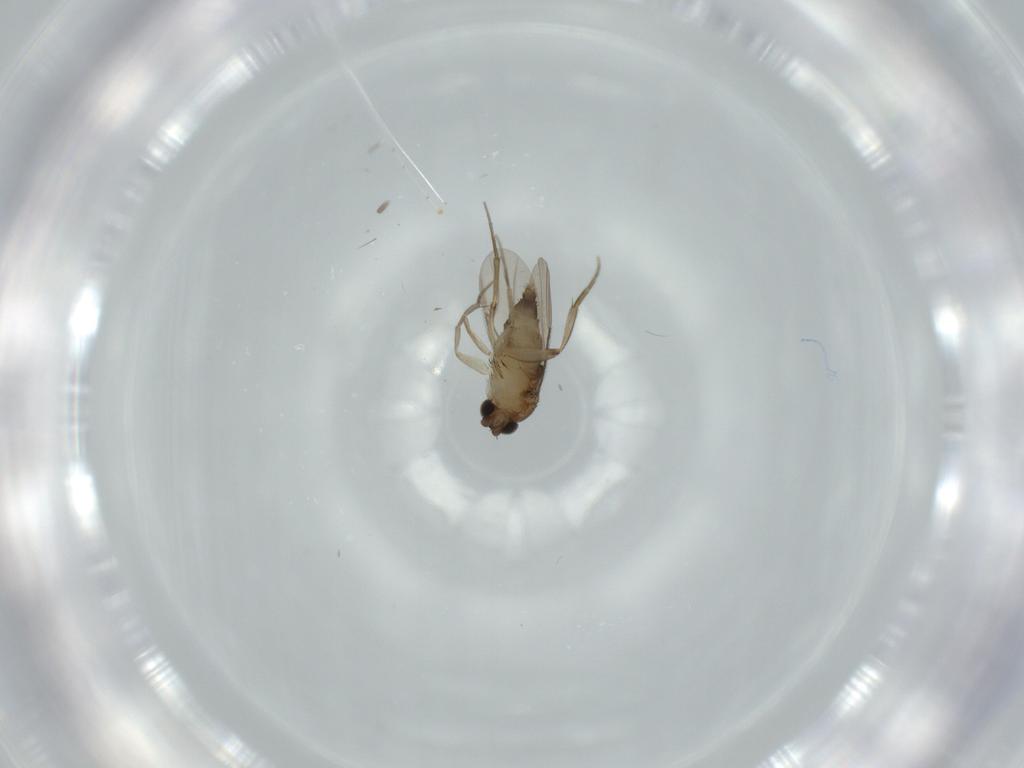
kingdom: Animalia
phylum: Arthropoda
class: Insecta
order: Diptera
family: Phoridae
